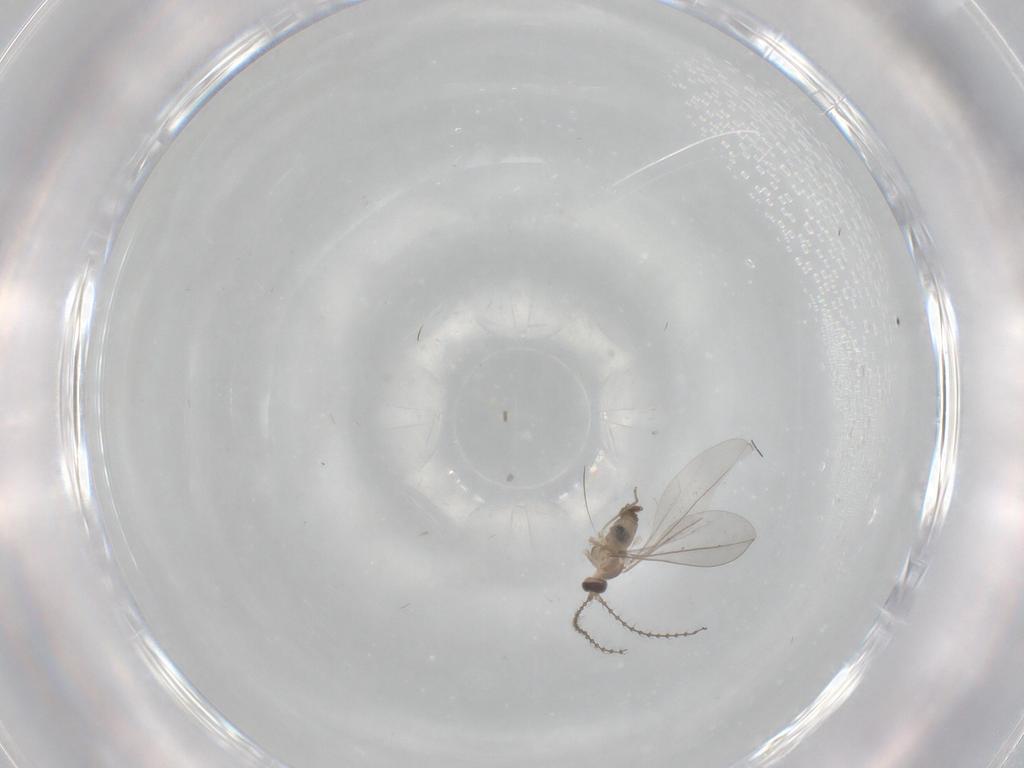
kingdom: Animalia
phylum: Arthropoda
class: Insecta
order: Diptera
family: Cecidomyiidae
